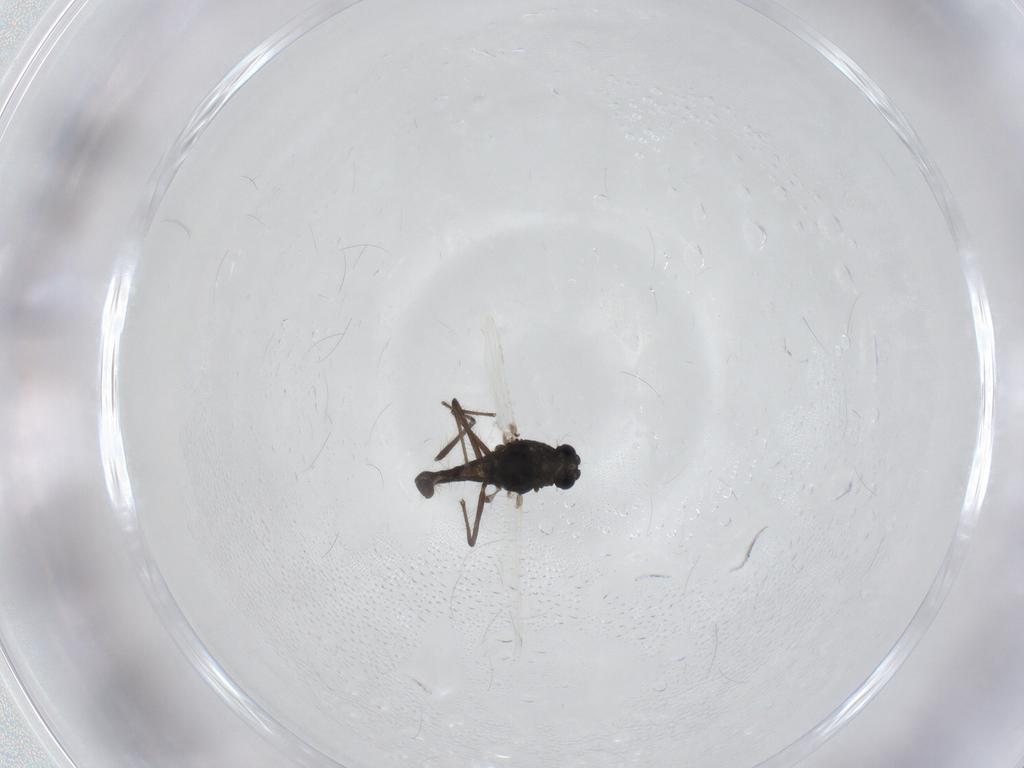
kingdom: Animalia
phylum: Arthropoda
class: Insecta
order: Diptera
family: Chironomidae
